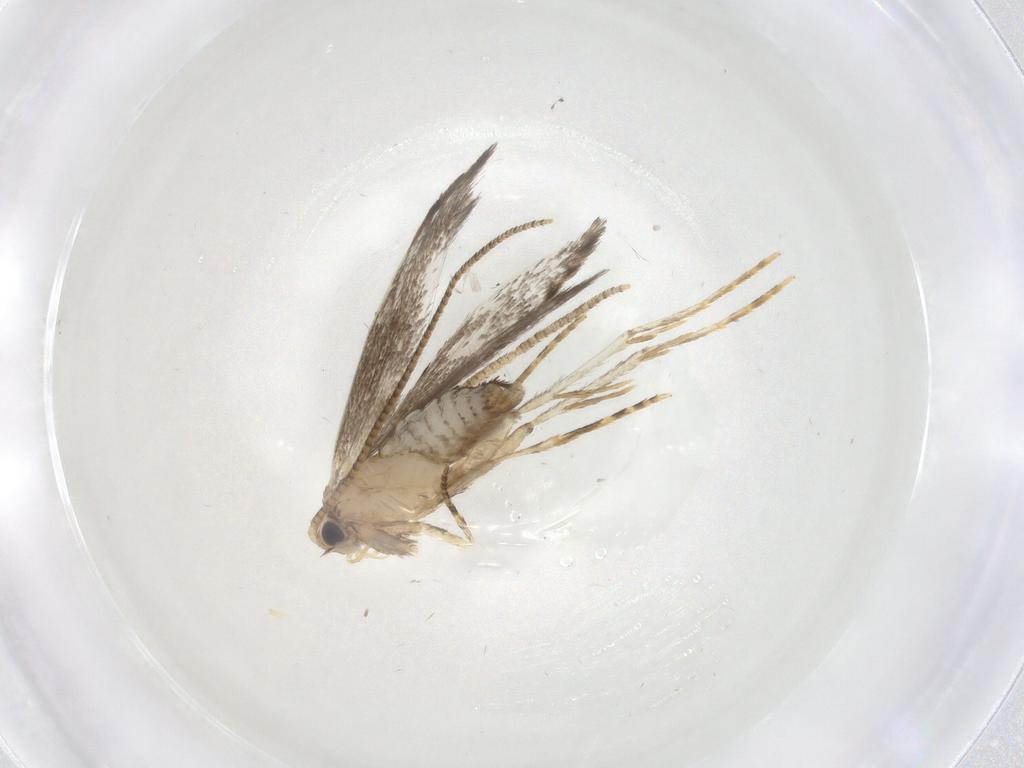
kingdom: Animalia
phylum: Arthropoda
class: Insecta
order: Lepidoptera
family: Tineidae
